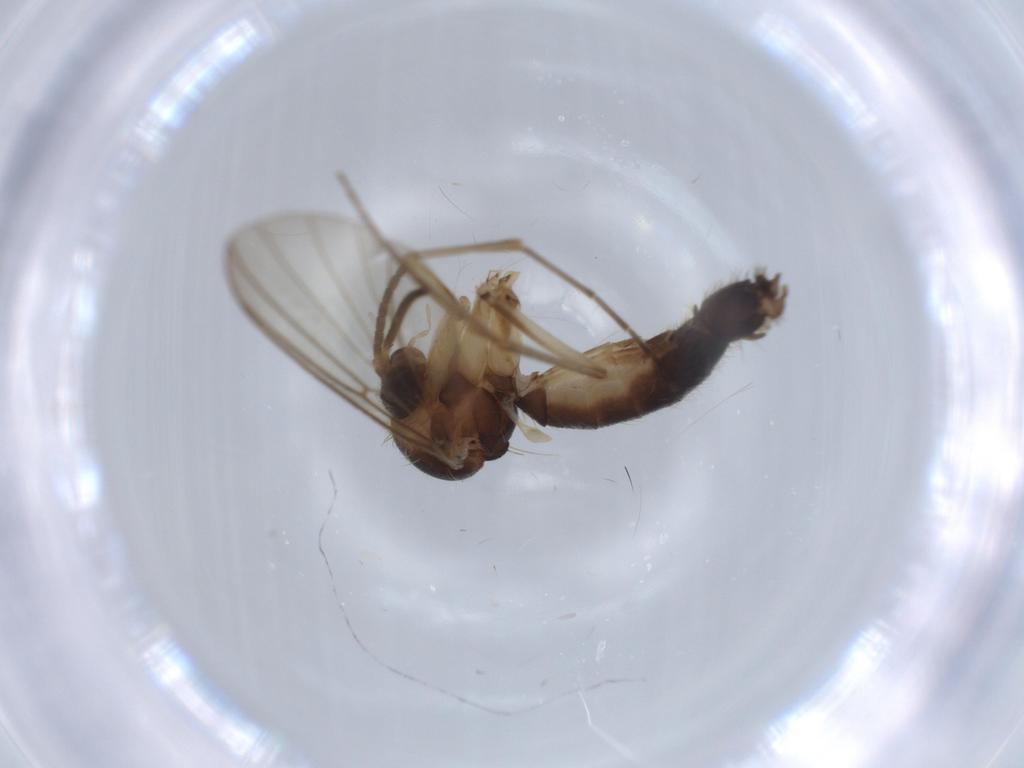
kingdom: Animalia
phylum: Arthropoda
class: Insecta
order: Diptera
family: Mycetophilidae
